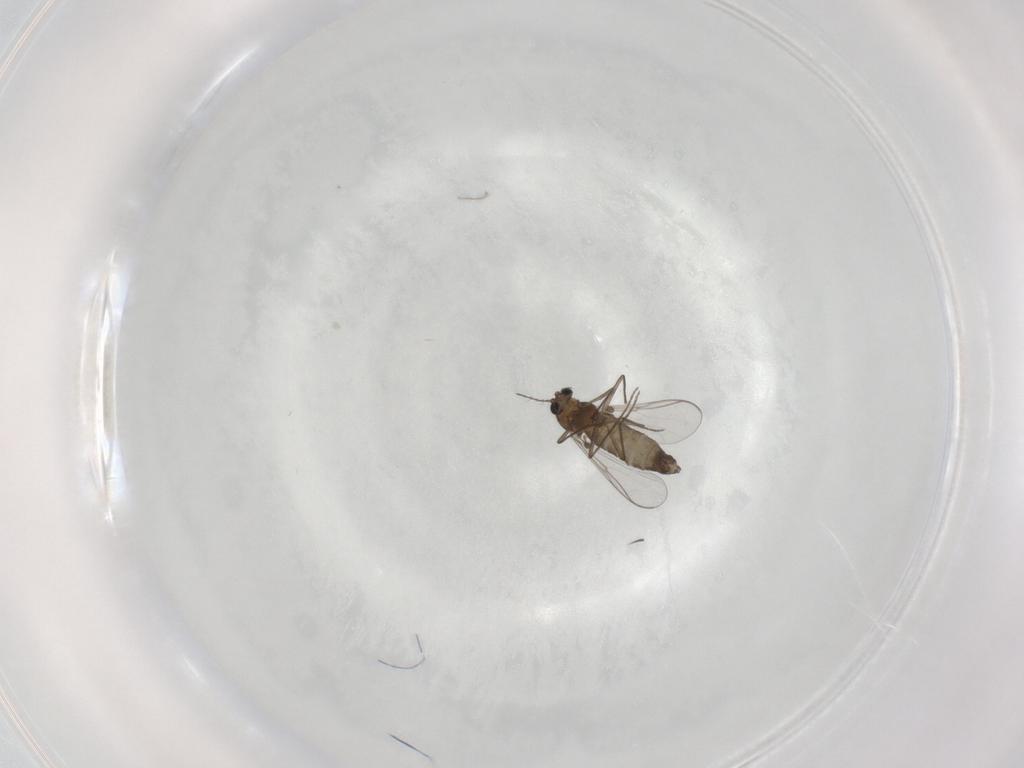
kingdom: Animalia
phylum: Arthropoda
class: Insecta
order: Diptera
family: Chironomidae
